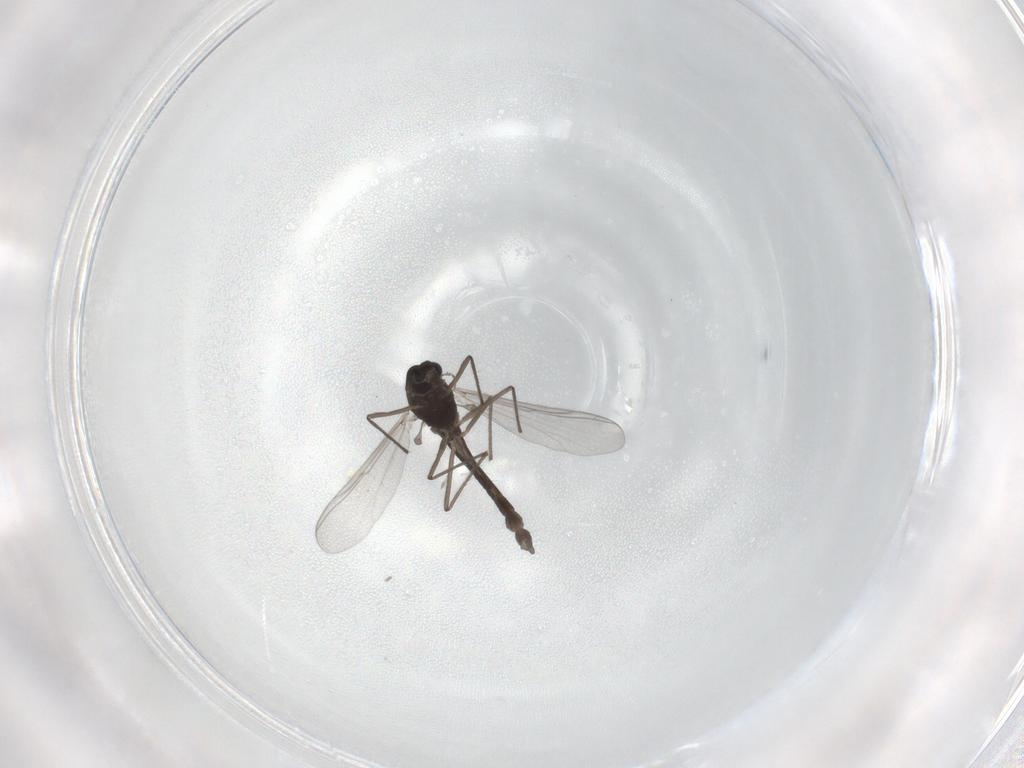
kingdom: Animalia
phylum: Arthropoda
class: Insecta
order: Diptera
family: Chironomidae
